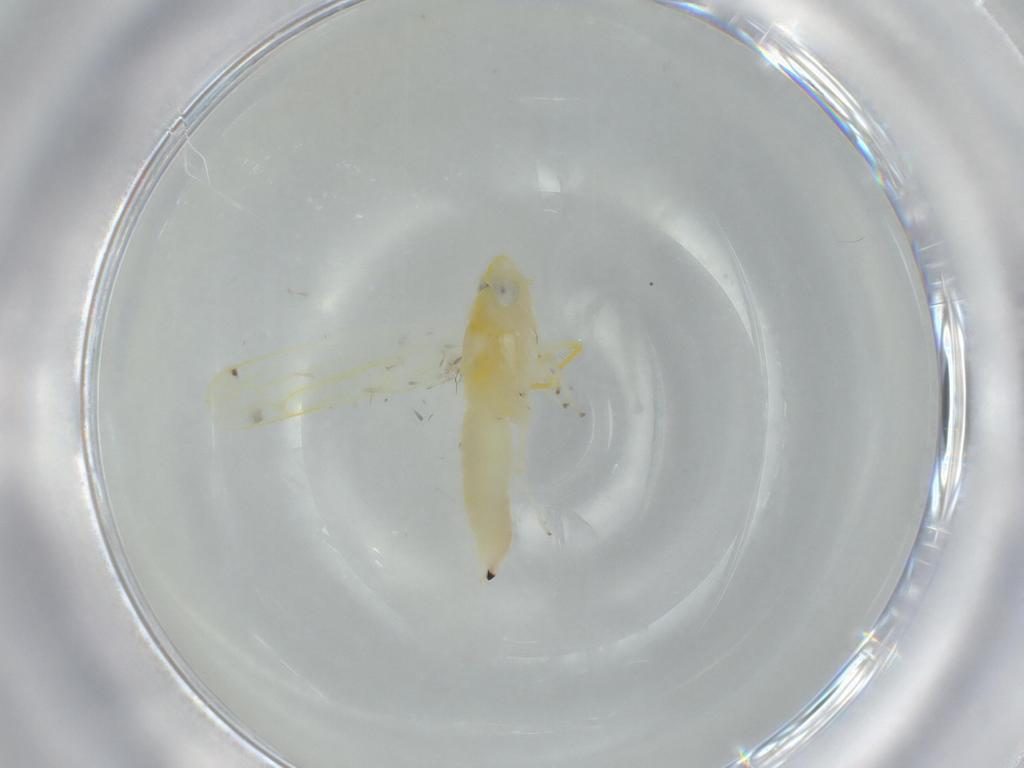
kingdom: Animalia
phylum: Arthropoda
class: Insecta
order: Hemiptera
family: Cicadellidae
